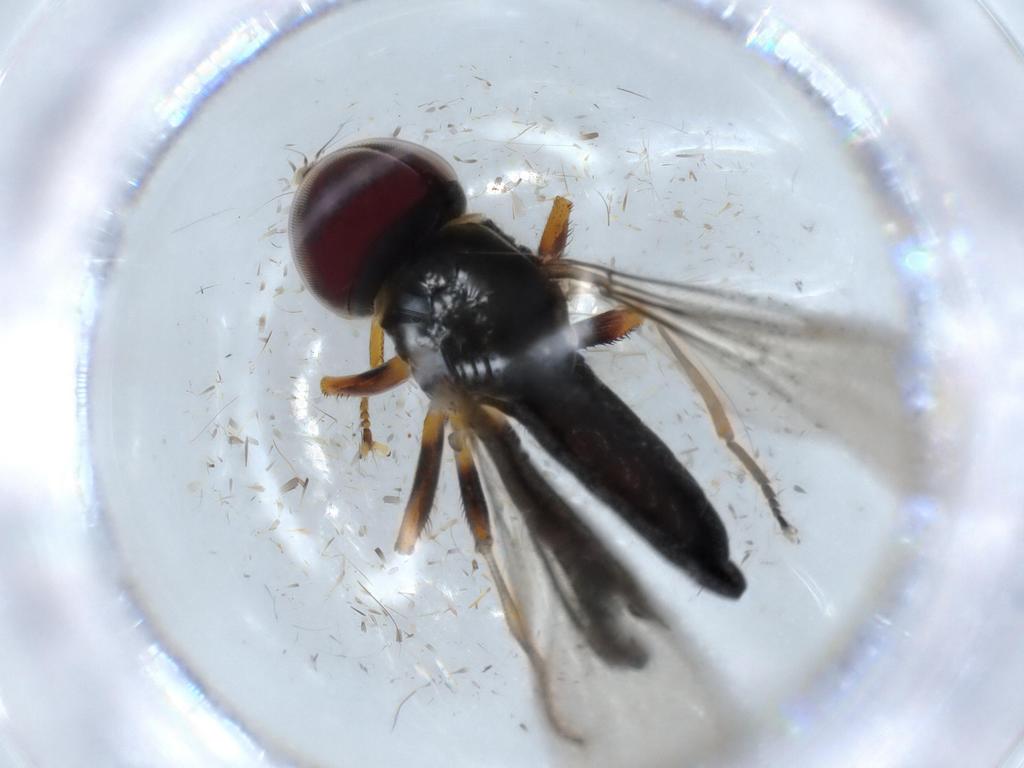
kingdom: Animalia
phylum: Arthropoda
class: Insecta
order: Diptera
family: Pipunculidae
